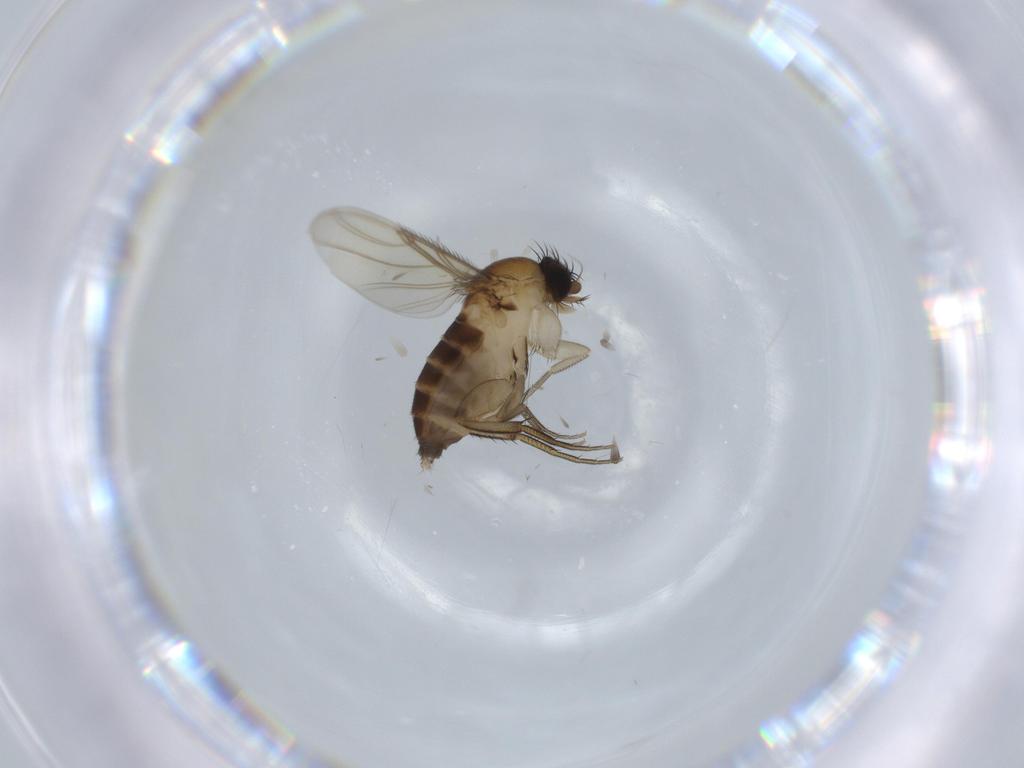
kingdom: Animalia
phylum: Arthropoda
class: Insecta
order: Diptera
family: Phoridae
